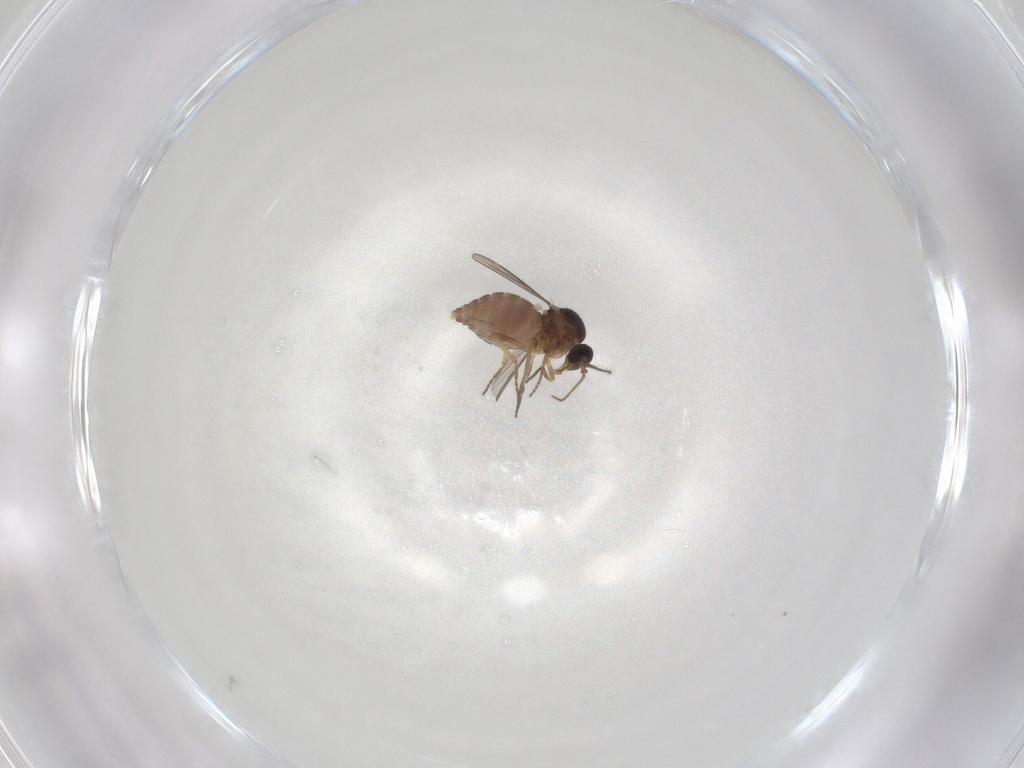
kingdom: Animalia
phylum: Arthropoda
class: Insecta
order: Diptera
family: Ceratopogonidae
